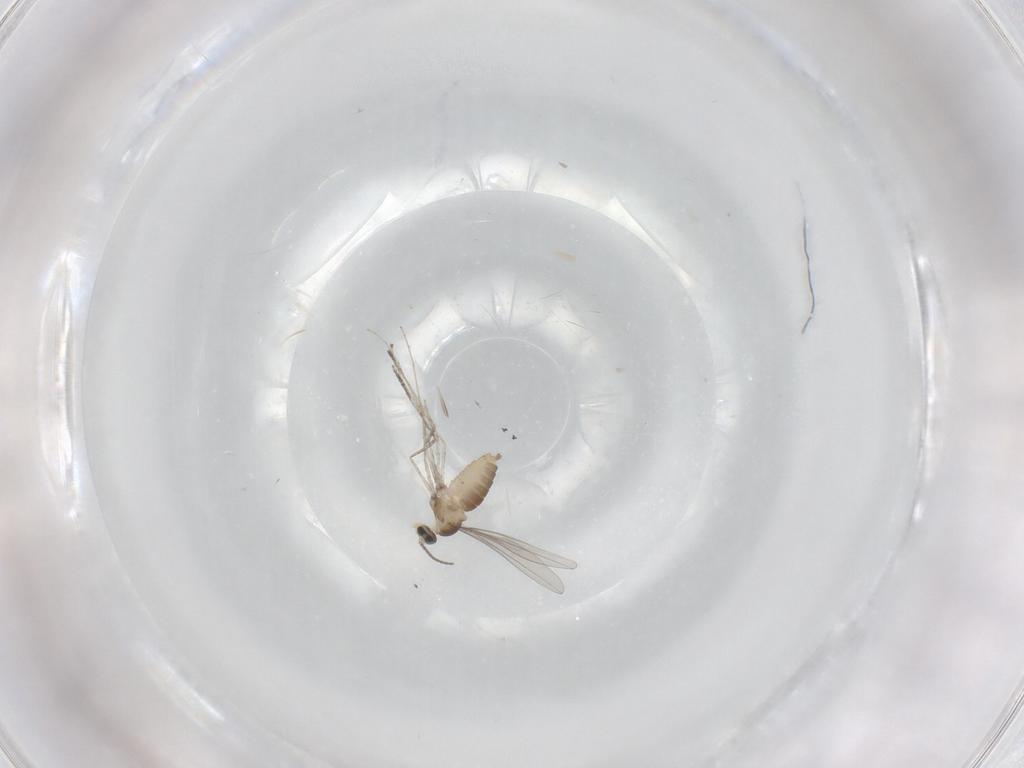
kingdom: Animalia
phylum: Arthropoda
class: Insecta
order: Diptera
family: Cecidomyiidae
